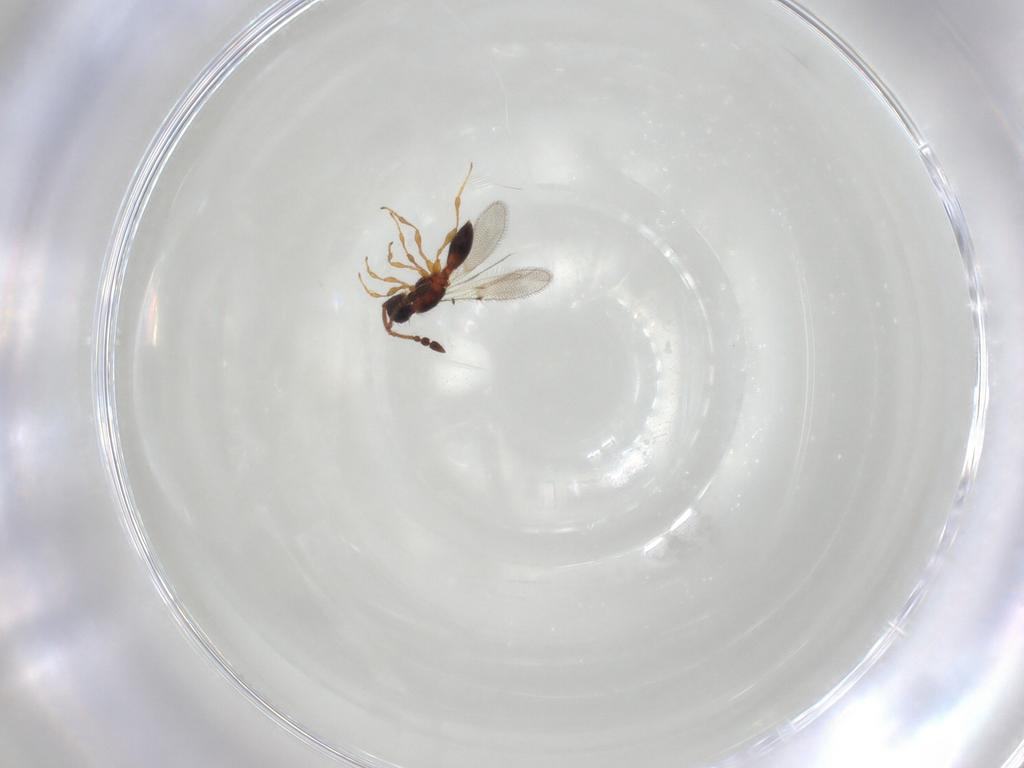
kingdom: Animalia
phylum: Arthropoda
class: Insecta
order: Hymenoptera
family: Diapriidae
